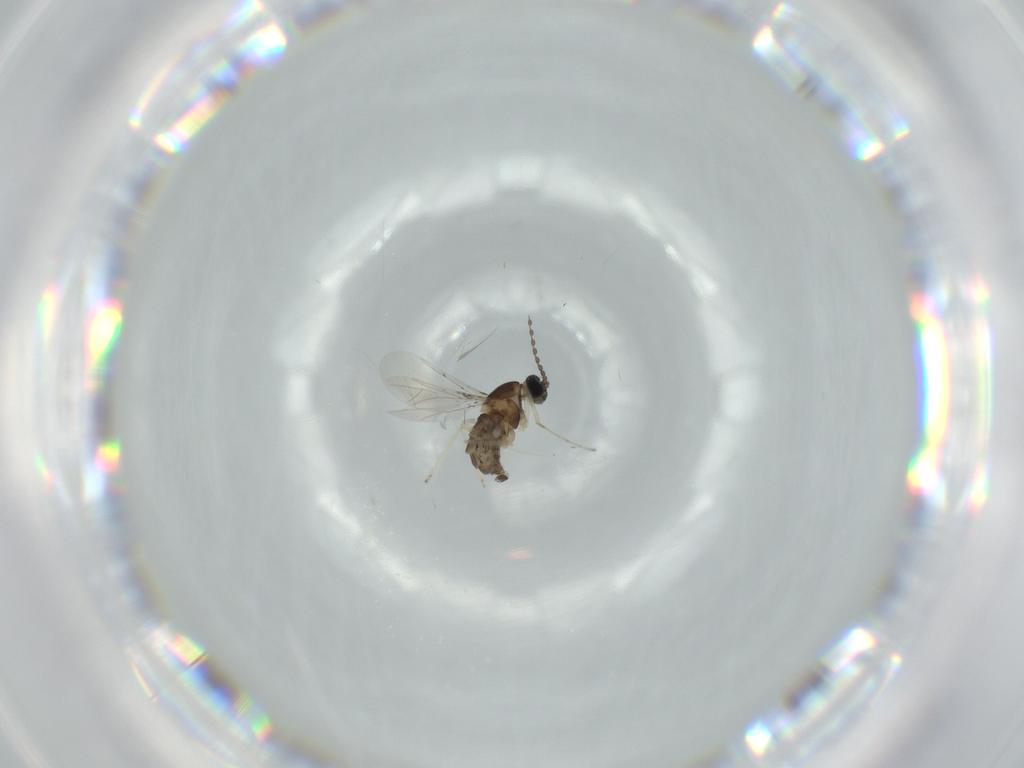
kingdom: Animalia
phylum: Arthropoda
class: Insecta
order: Diptera
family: Cecidomyiidae
